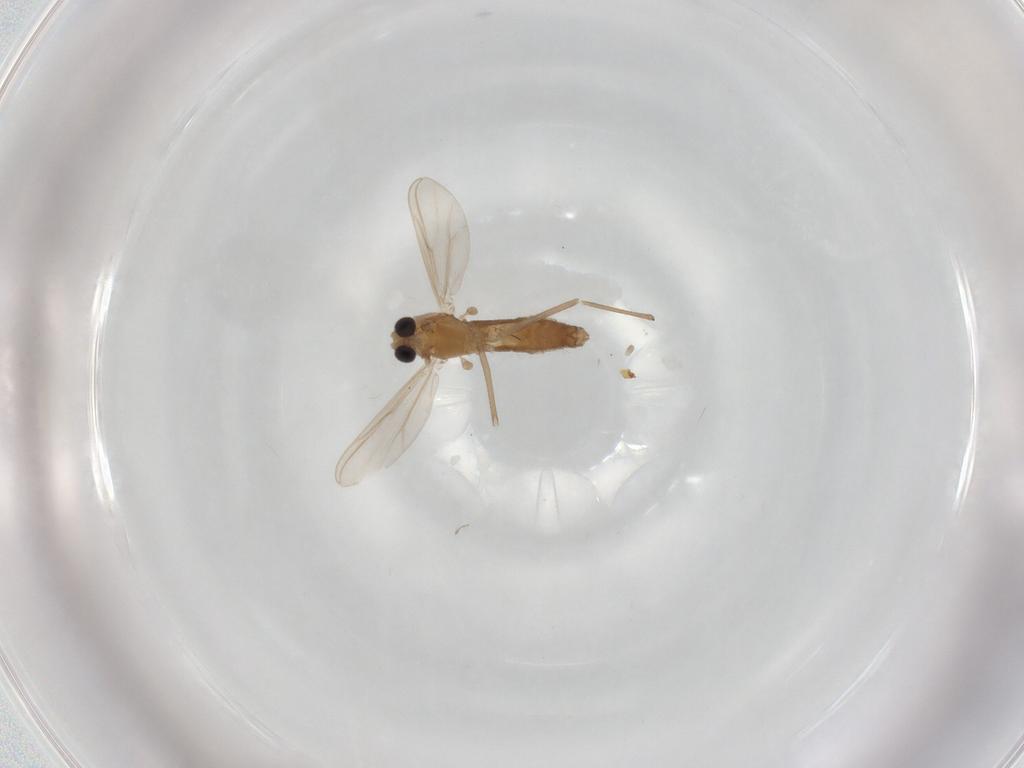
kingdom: Animalia
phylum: Arthropoda
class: Insecta
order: Diptera
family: Chironomidae
